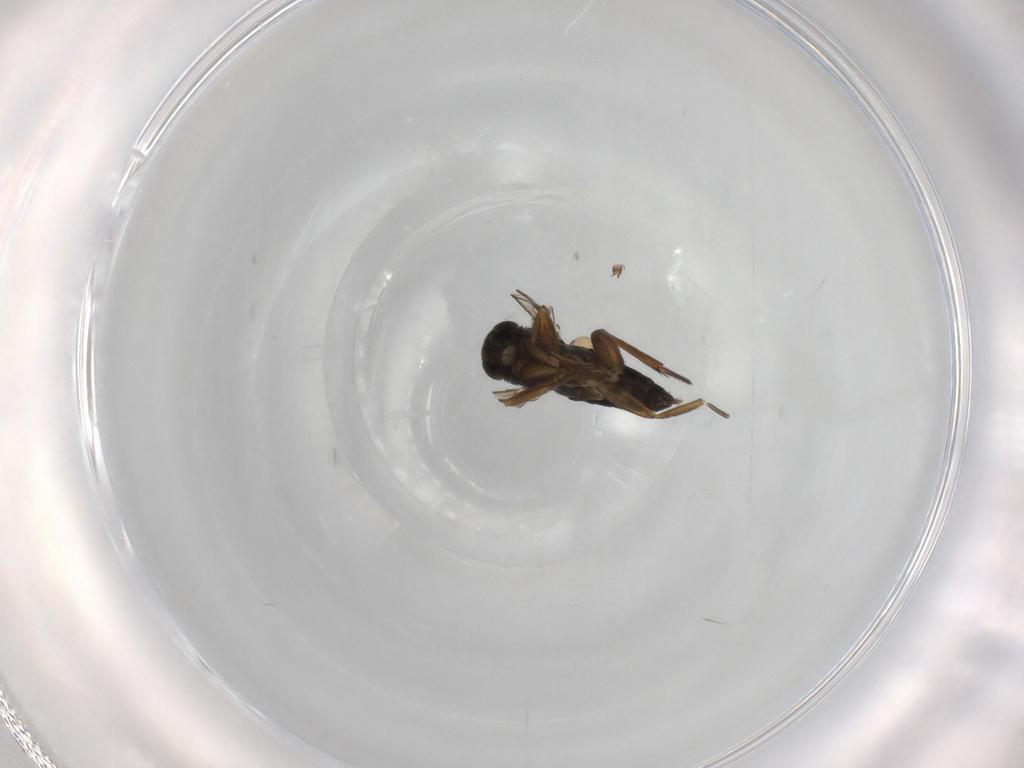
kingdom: Animalia
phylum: Arthropoda
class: Insecta
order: Diptera
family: Phoridae
